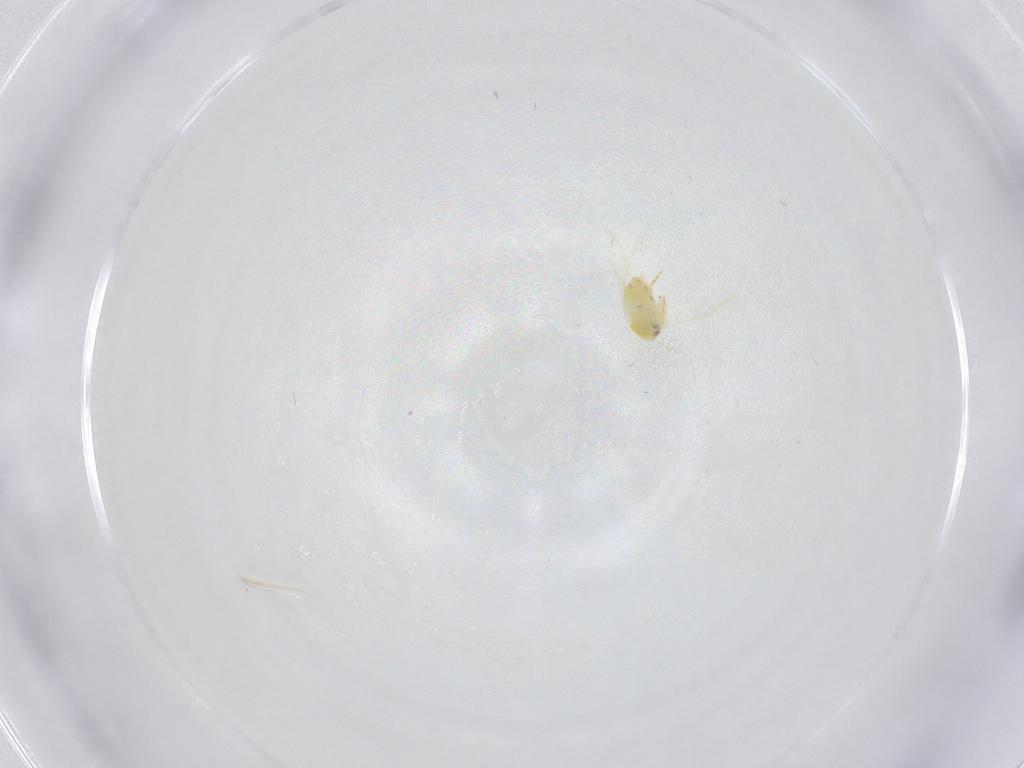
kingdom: Animalia
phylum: Arthropoda
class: Insecta
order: Hemiptera
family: Aleyrodidae
